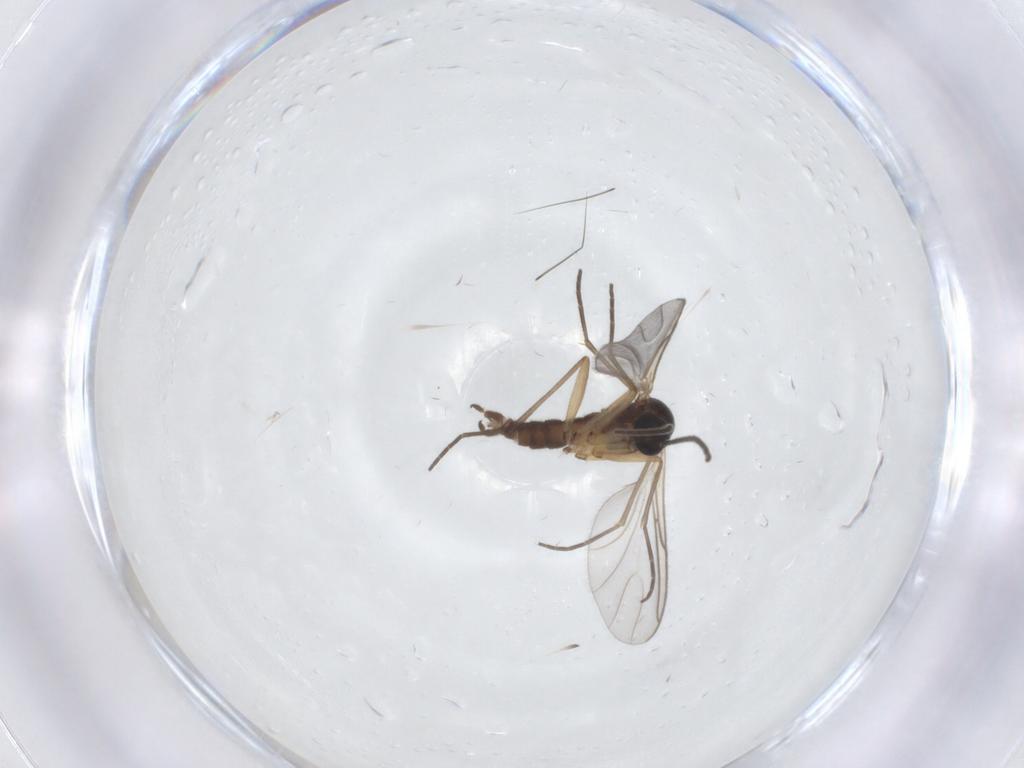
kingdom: Animalia
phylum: Arthropoda
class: Insecta
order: Diptera
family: Sciaridae
